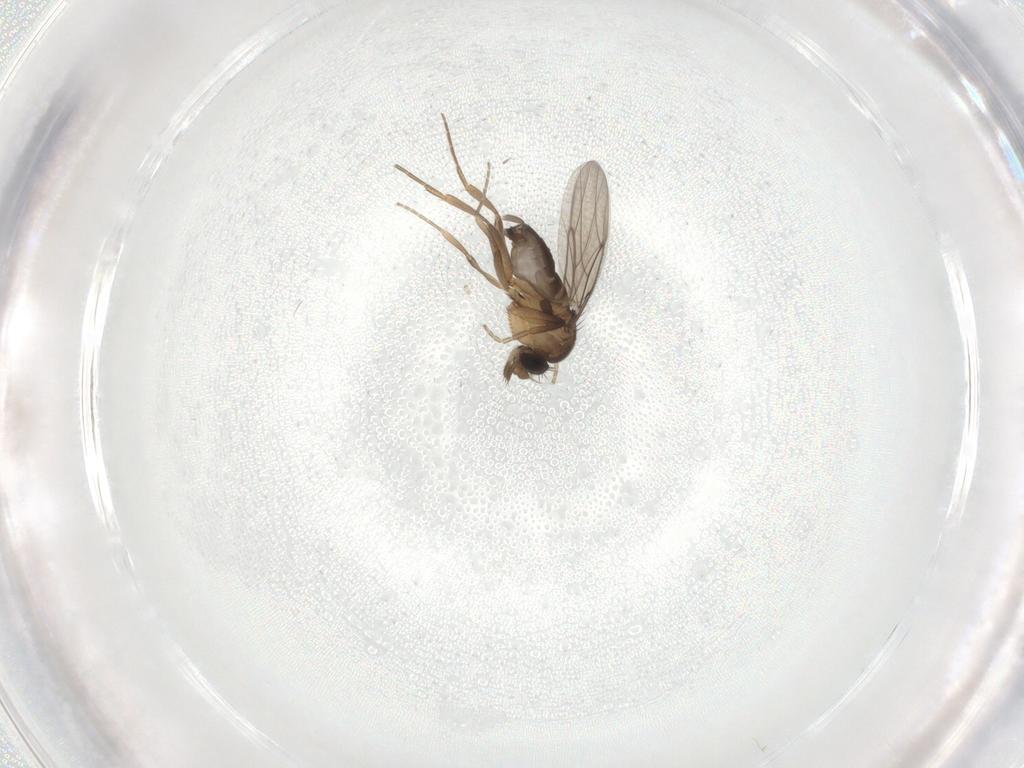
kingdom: Animalia
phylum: Arthropoda
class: Insecta
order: Diptera
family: Phoridae
